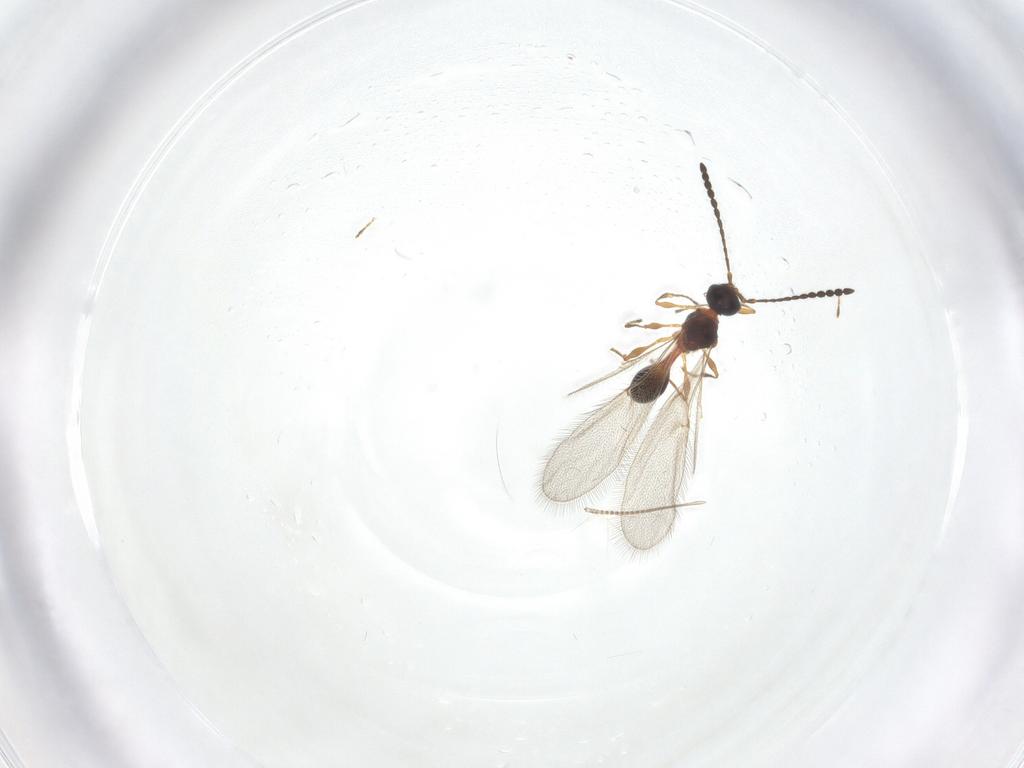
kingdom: Animalia
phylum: Arthropoda
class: Insecta
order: Hymenoptera
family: Diapriidae
